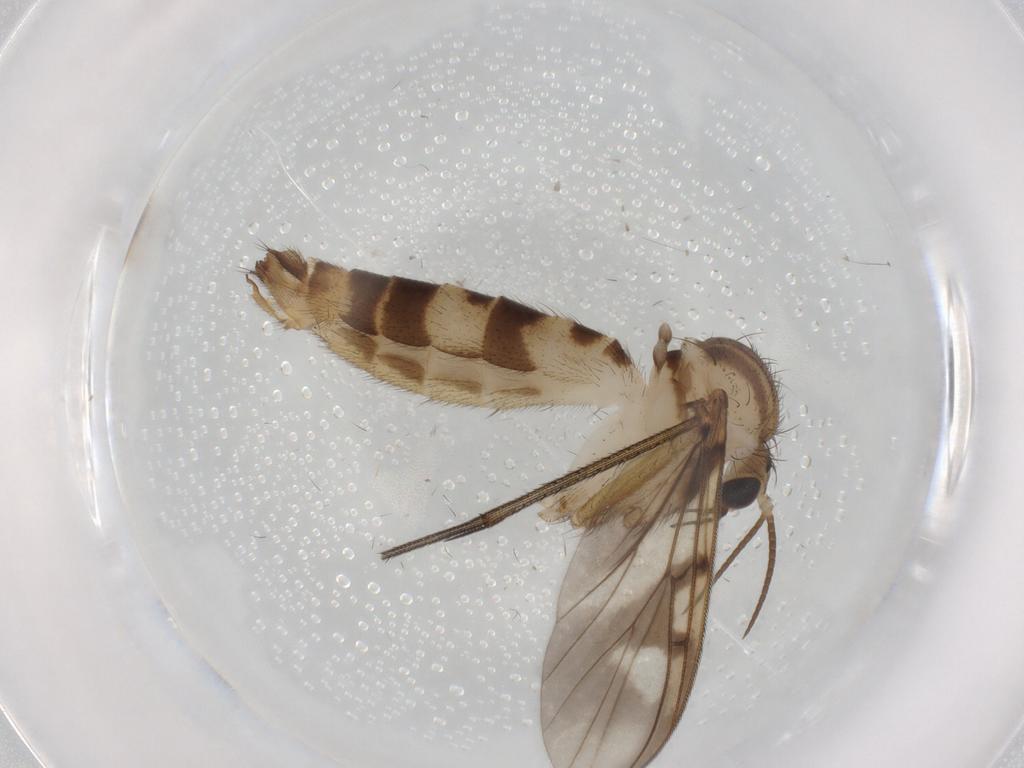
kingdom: Animalia
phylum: Arthropoda
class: Insecta
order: Diptera
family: Mycetophilidae
